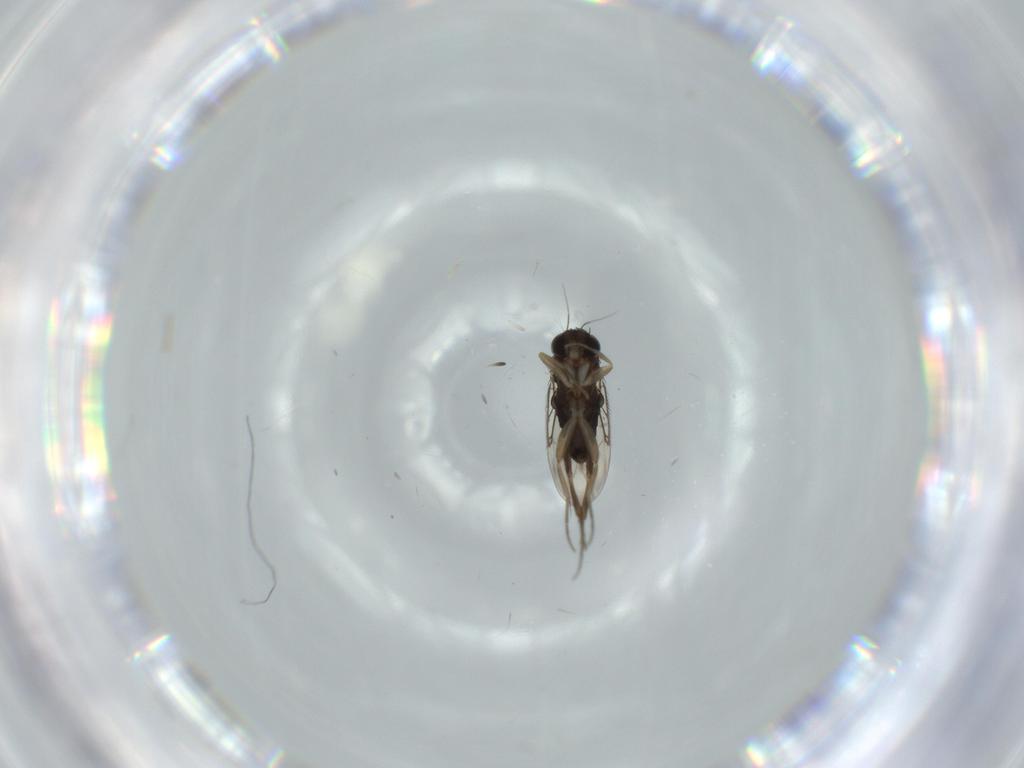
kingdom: Animalia
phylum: Arthropoda
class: Insecta
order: Diptera
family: Phoridae
